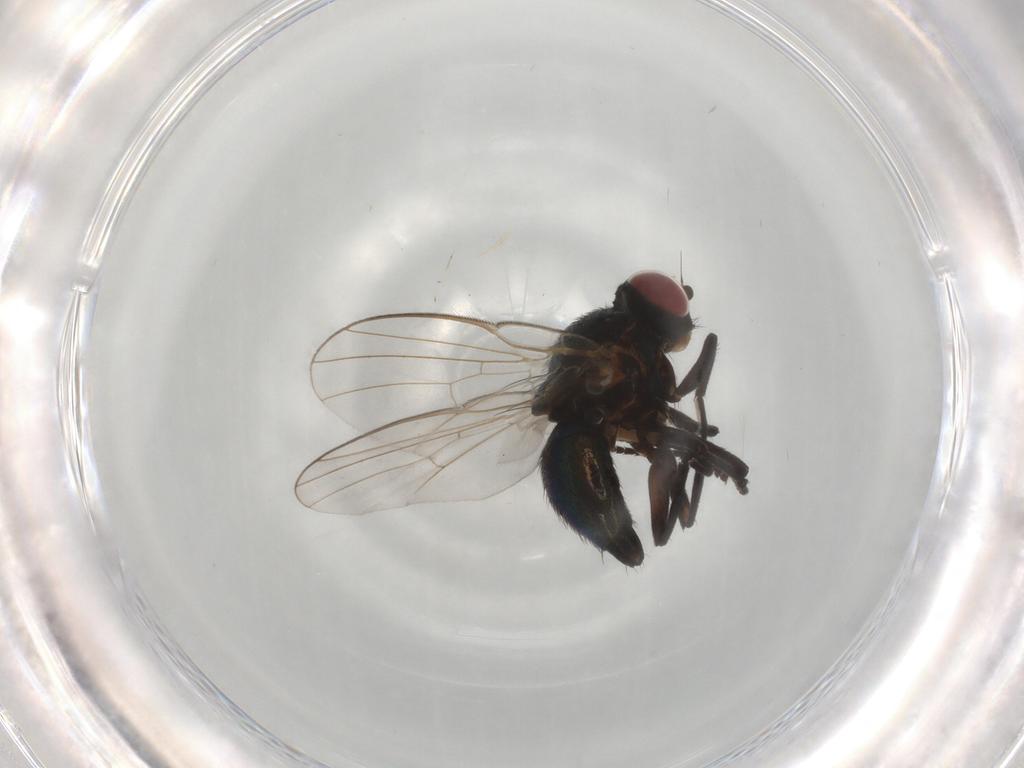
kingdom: Animalia
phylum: Arthropoda
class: Insecta
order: Diptera
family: Agromyzidae
